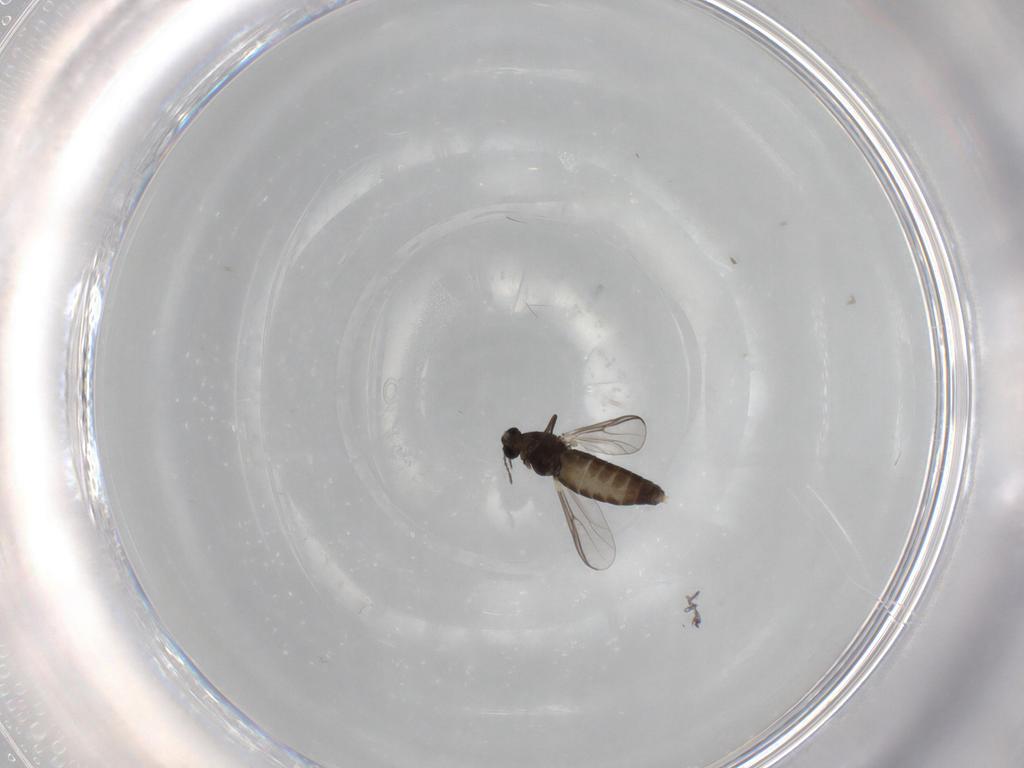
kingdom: Animalia
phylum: Arthropoda
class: Insecta
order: Diptera
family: Chironomidae
